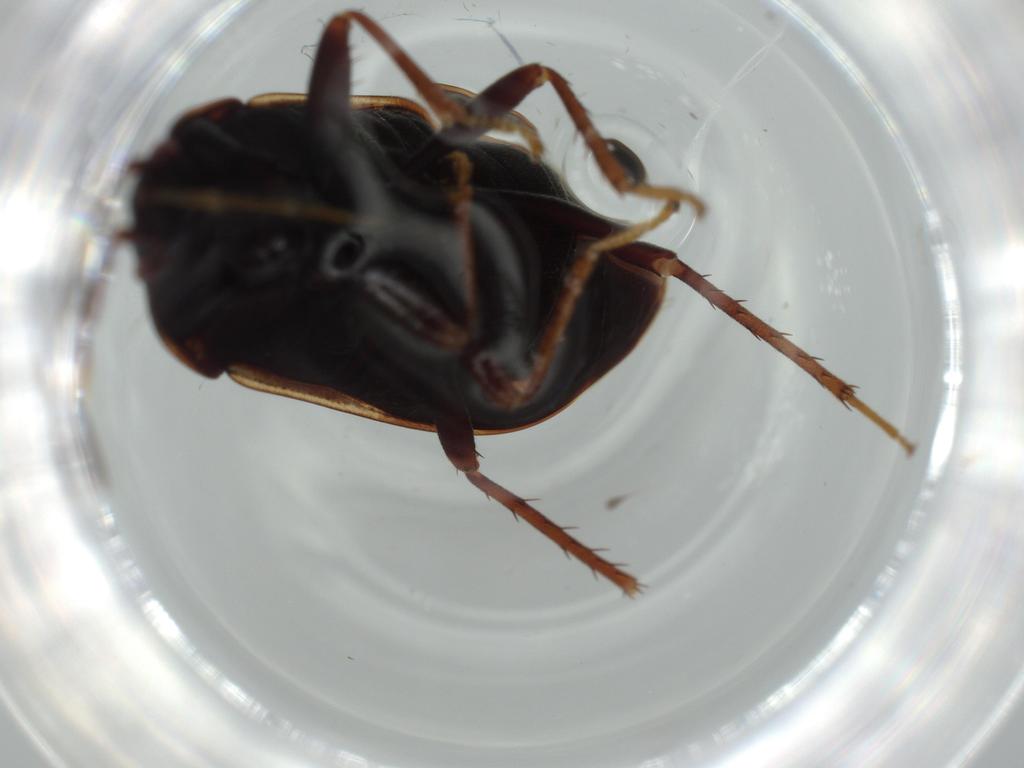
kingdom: Animalia
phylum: Arthropoda
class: Insecta
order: Hemiptera
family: Rhyparochromidae
